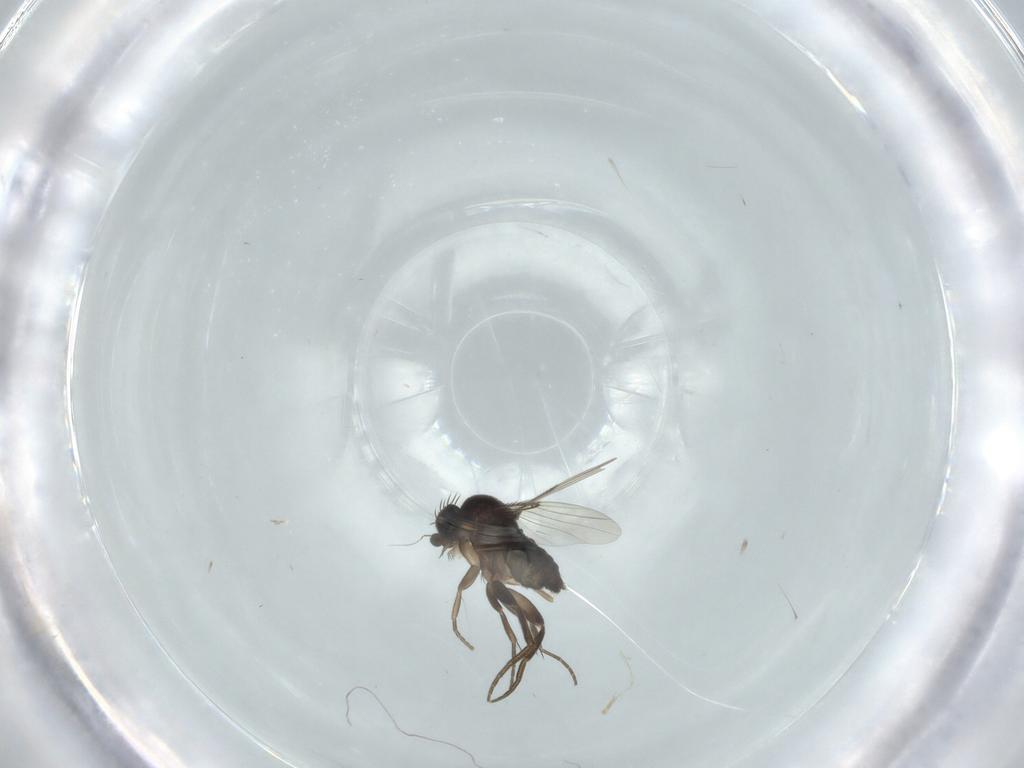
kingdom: Animalia
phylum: Arthropoda
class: Insecta
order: Diptera
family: Phoridae
